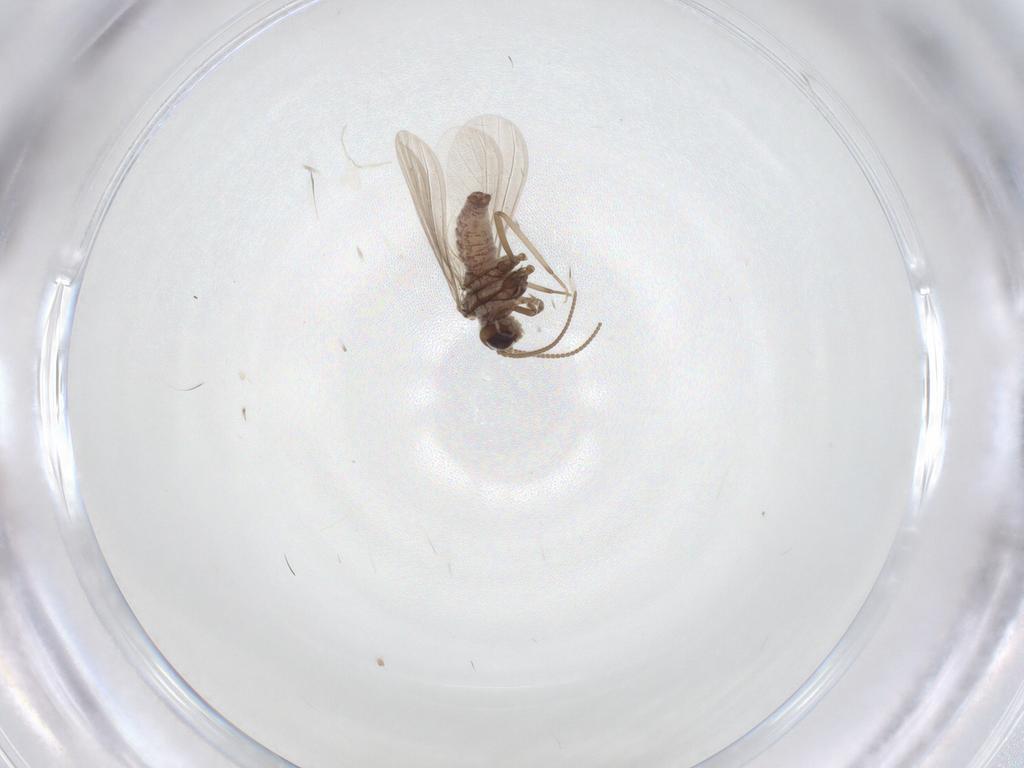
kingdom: Animalia
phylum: Arthropoda
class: Insecta
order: Neuroptera
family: Coniopterygidae
